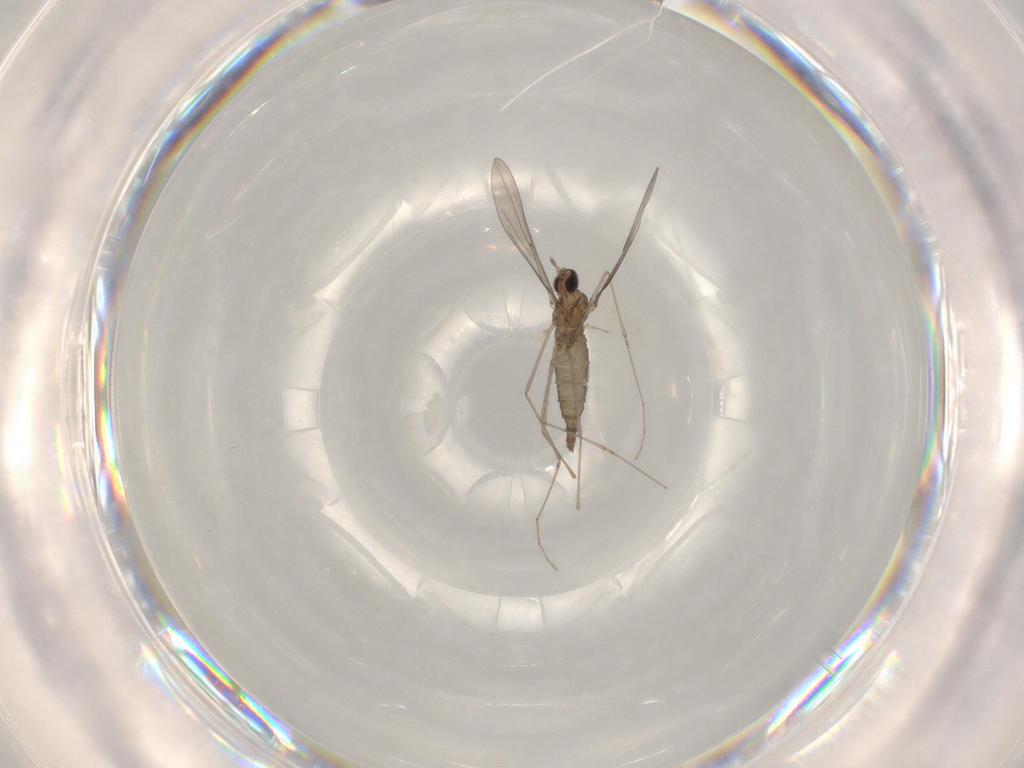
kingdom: Animalia
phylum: Arthropoda
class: Insecta
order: Diptera
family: Cecidomyiidae
